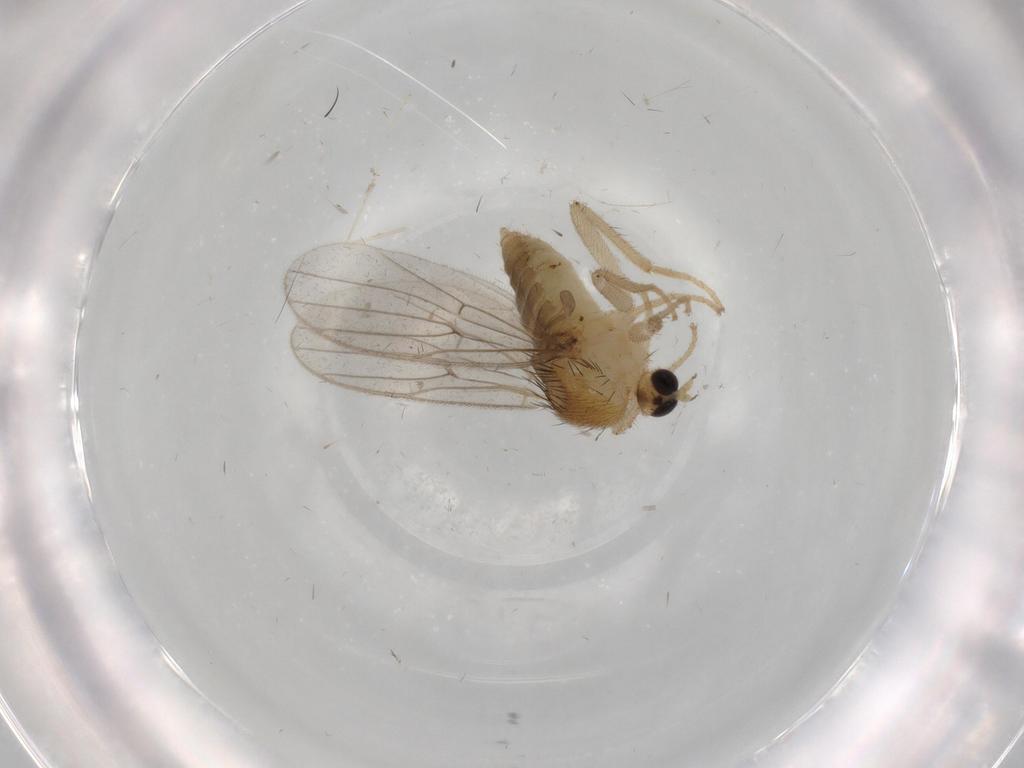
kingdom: Animalia
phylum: Arthropoda
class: Insecta
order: Diptera
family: Hybotidae
